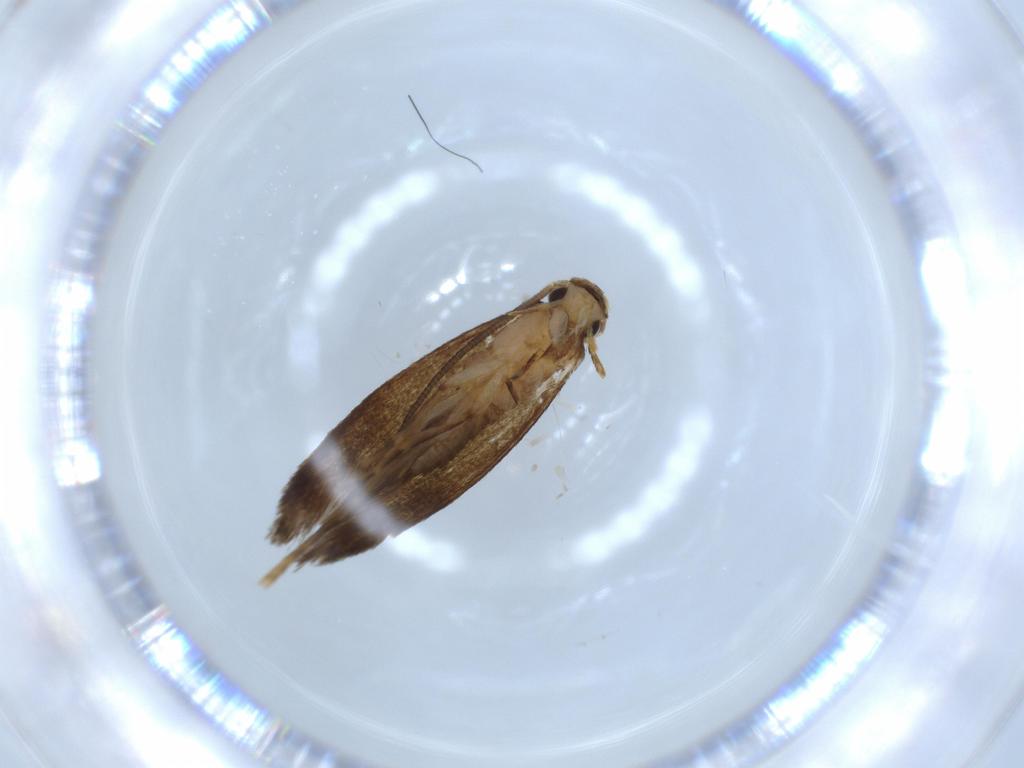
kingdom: Animalia
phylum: Arthropoda
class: Insecta
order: Lepidoptera
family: Tineidae
